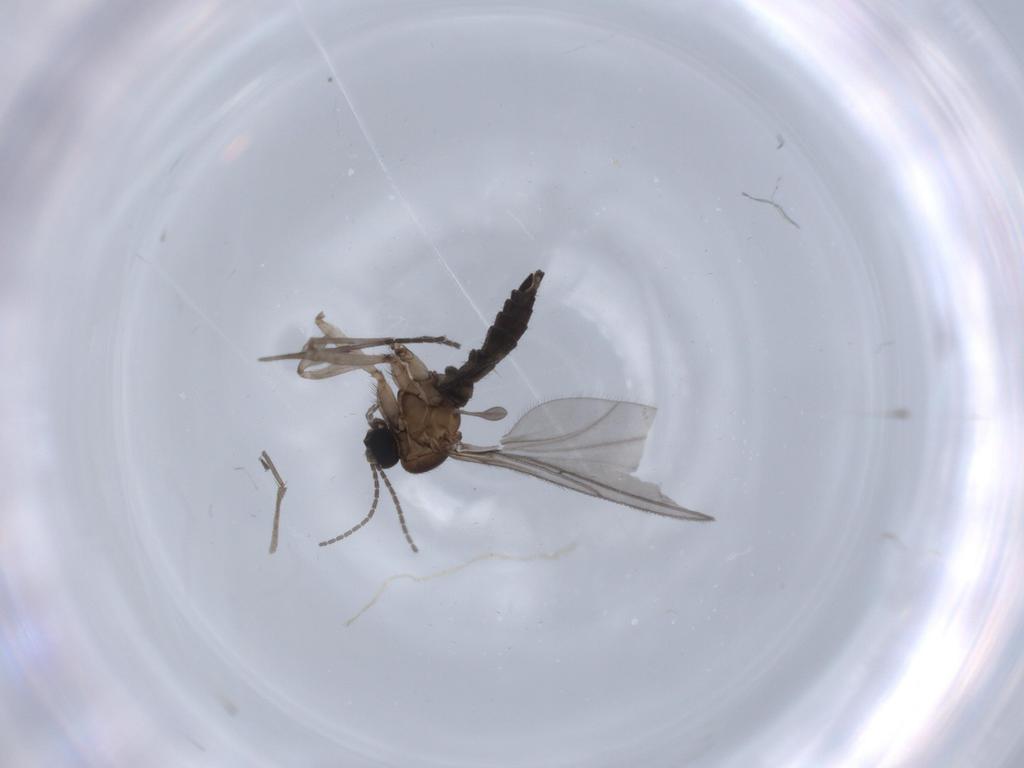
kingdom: Animalia
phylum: Arthropoda
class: Insecta
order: Diptera
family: Sciaridae
